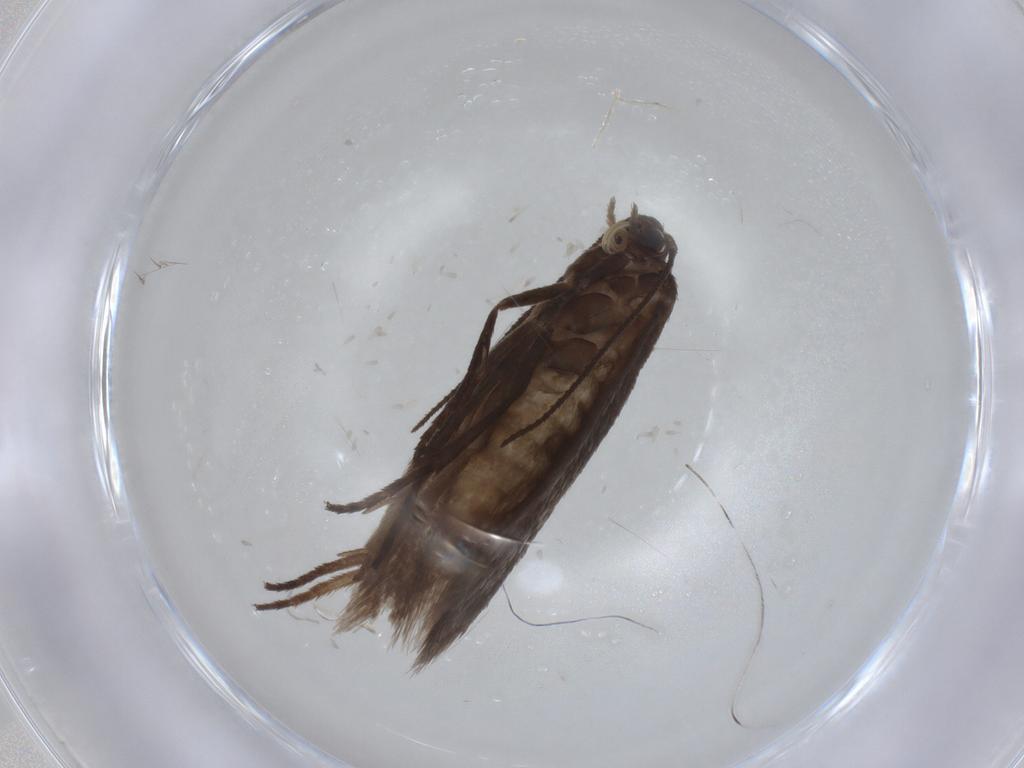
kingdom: Animalia
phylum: Arthropoda
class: Insecta
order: Lepidoptera
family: Limacodidae
